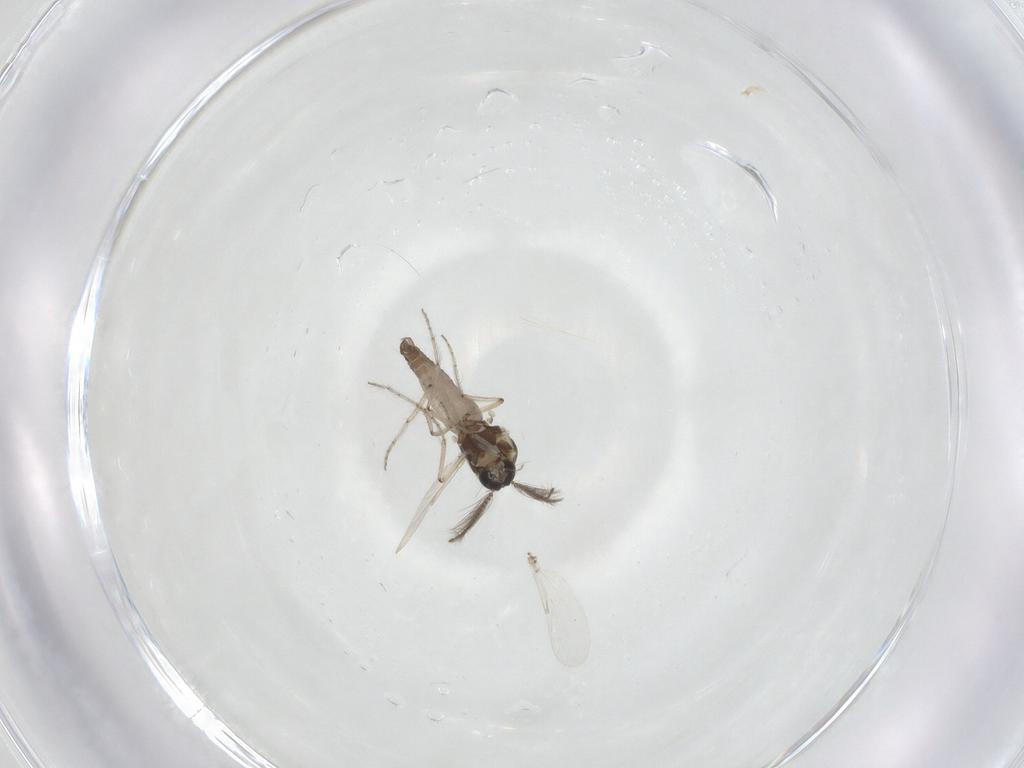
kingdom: Animalia
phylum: Arthropoda
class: Insecta
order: Diptera
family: Ceratopogonidae
